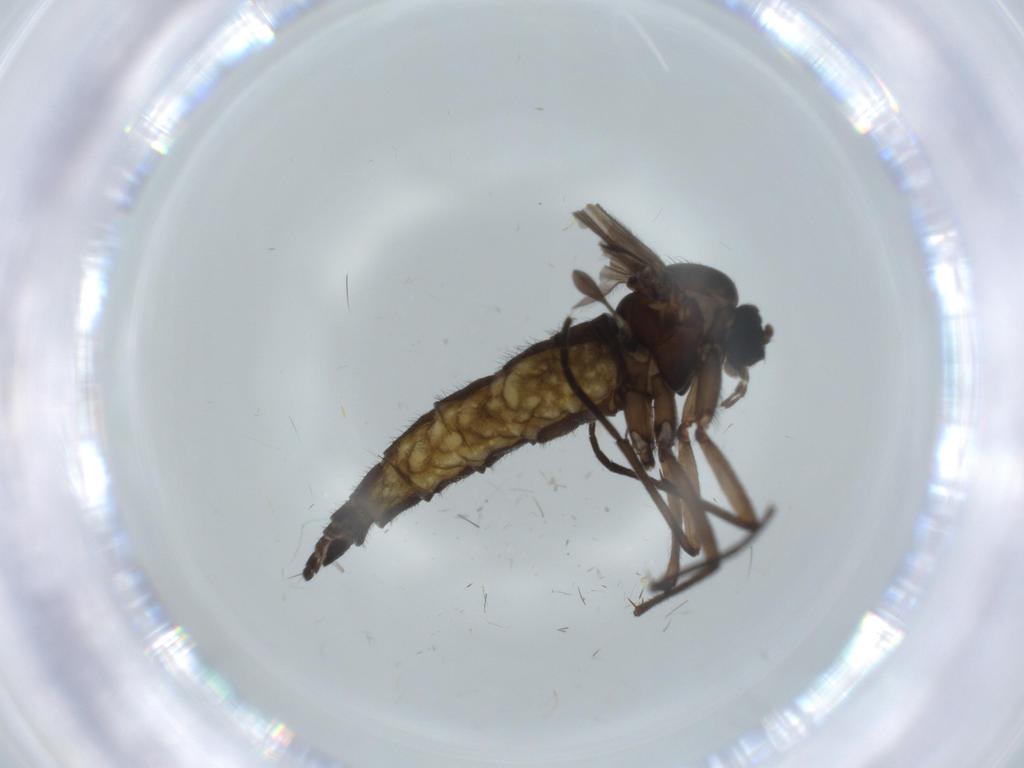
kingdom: Animalia
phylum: Arthropoda
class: Insecta
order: Diptera
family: Sciaridae
